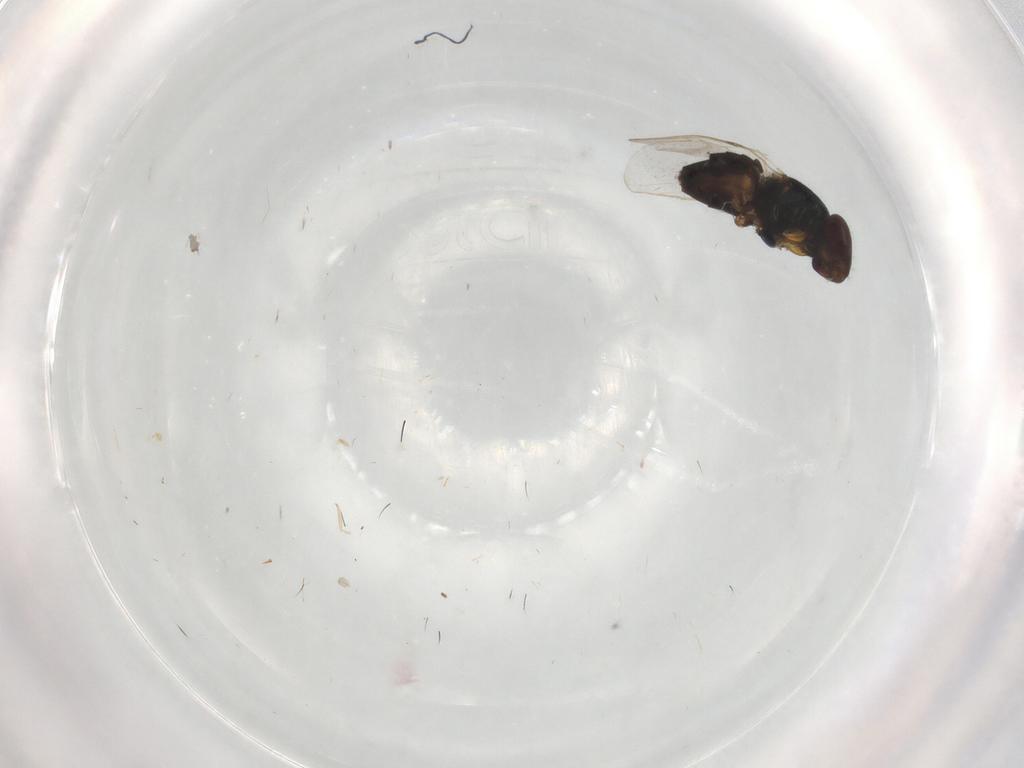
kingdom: Animalia
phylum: Arthropoda
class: Insecta
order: Diptera
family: Chloropidae
